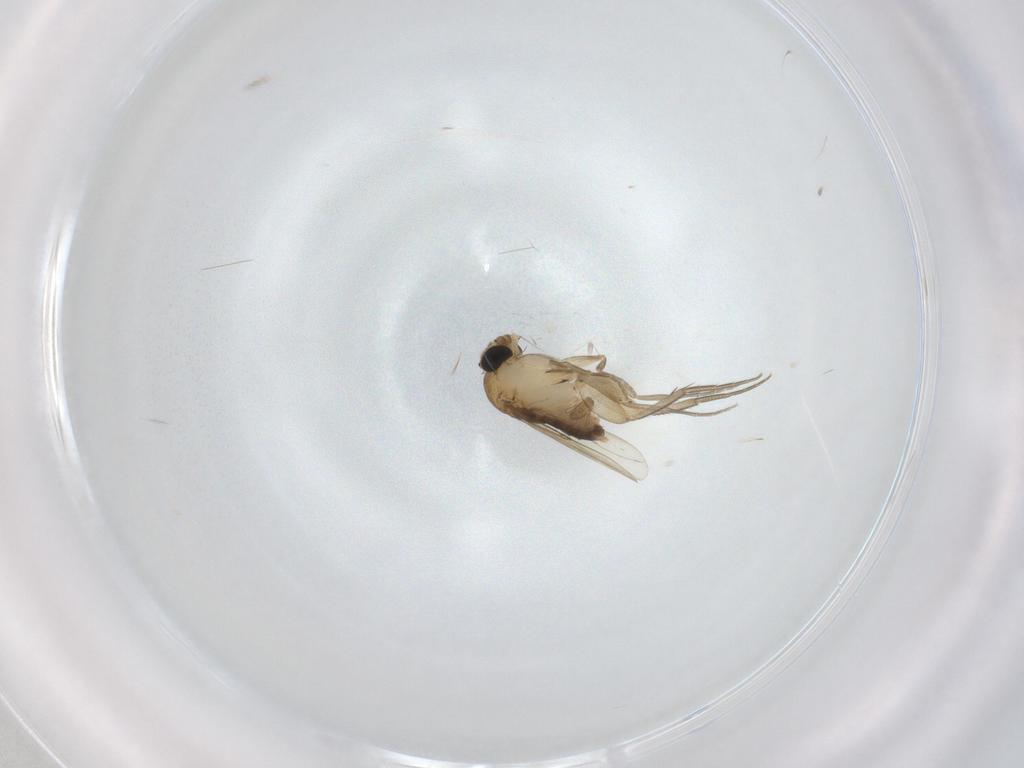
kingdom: Animalia
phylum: Arthropoda
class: Insecta
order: Diptera
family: Phoridae
